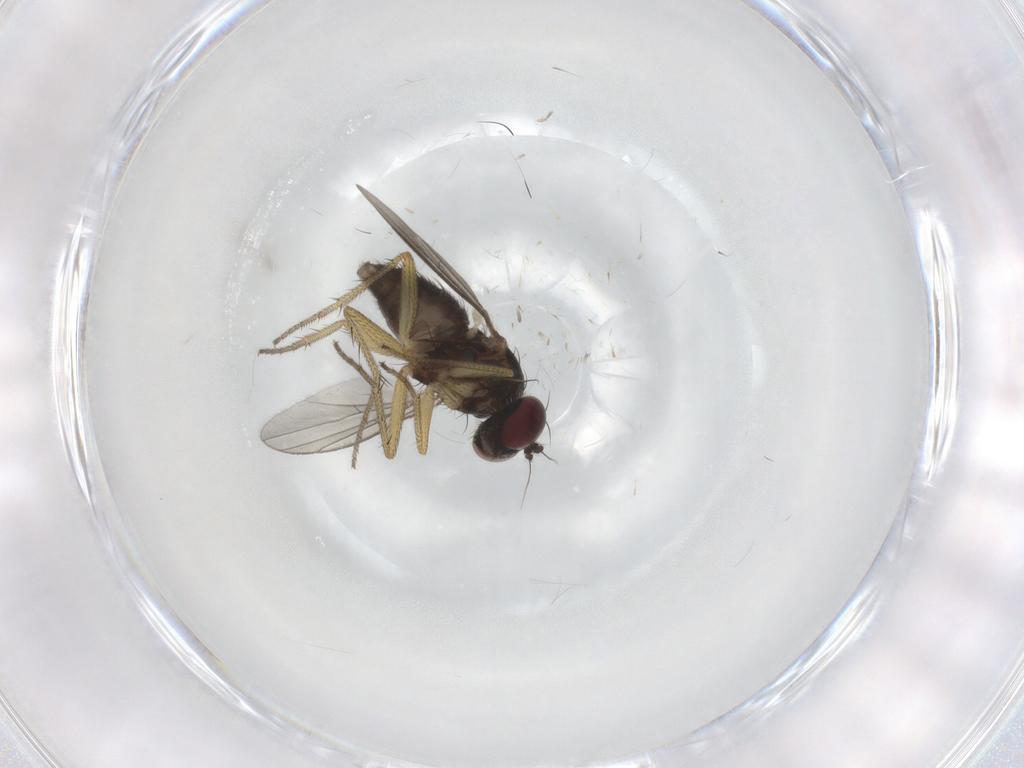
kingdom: Animalia
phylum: Arthropoda
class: Insecta
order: Diptera
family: Dolichopodidae
